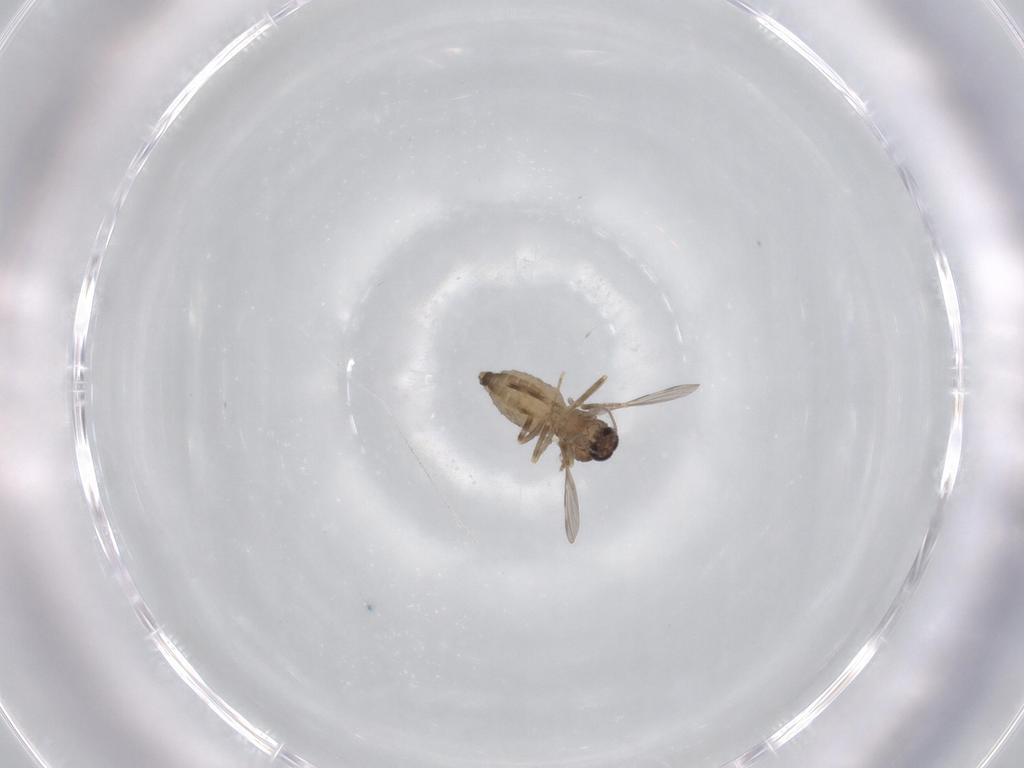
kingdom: Animalia
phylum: Arthropoda
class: Insecta
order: Diptera
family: Ceratopogonidae
